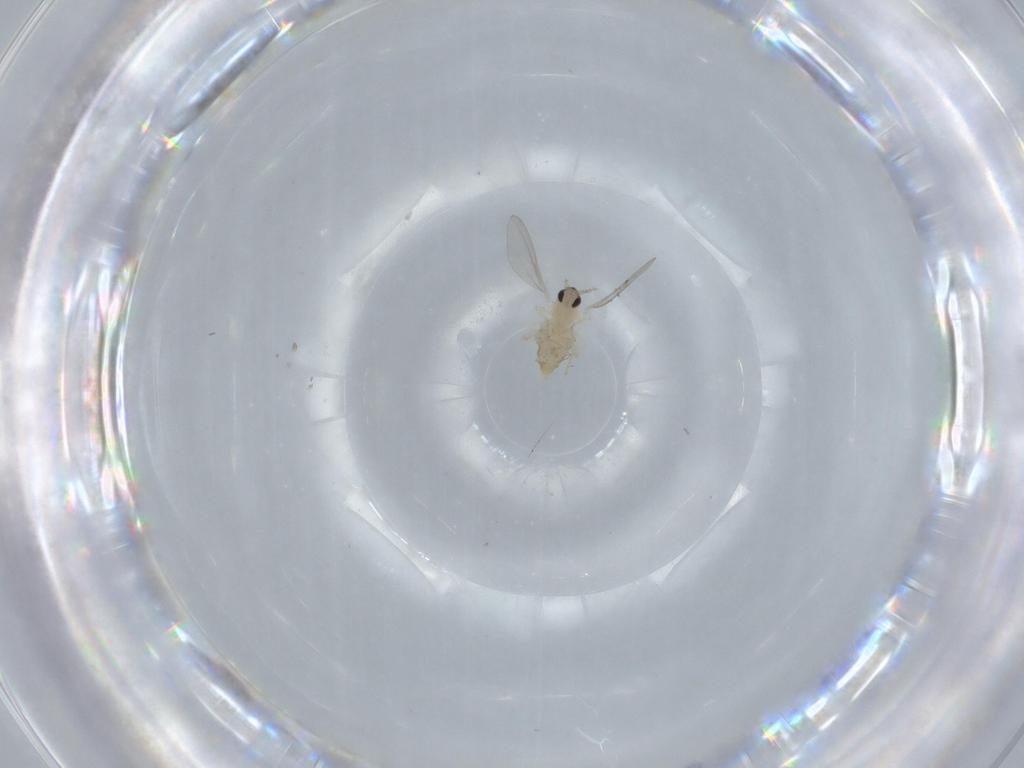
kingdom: Animalia
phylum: Arthropoda
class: Insecta
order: Diptera
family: Cecidomyiidae
